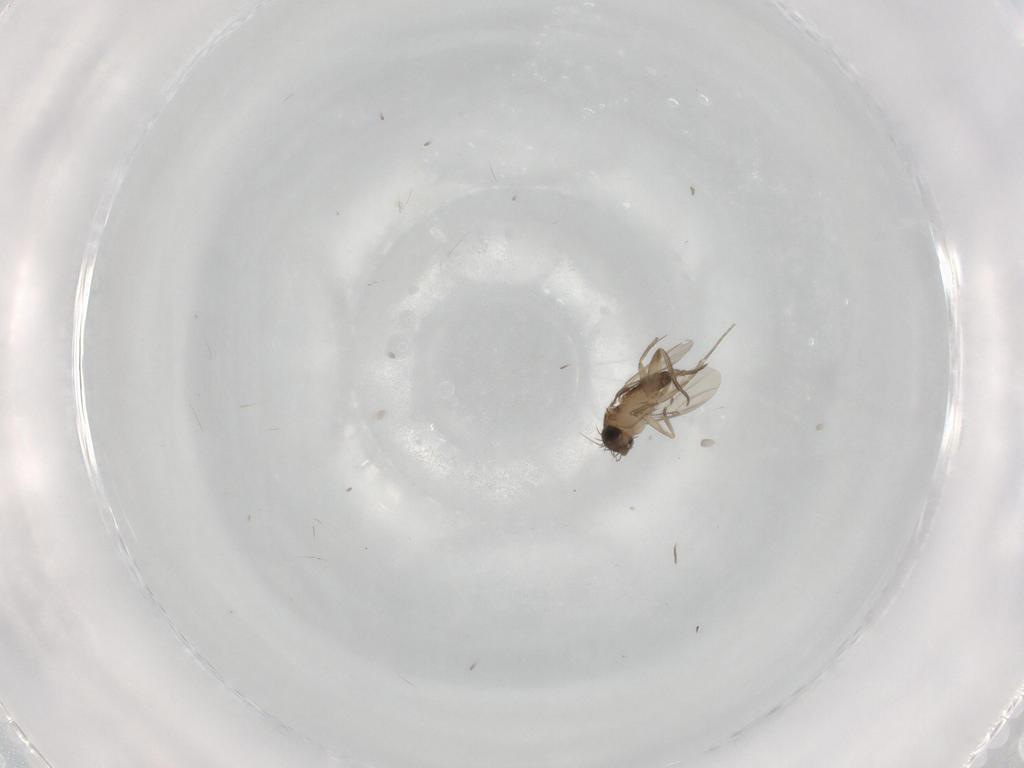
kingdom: Animalia
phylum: Arthropoda
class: Insecta
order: Diptera
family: Phoridae
